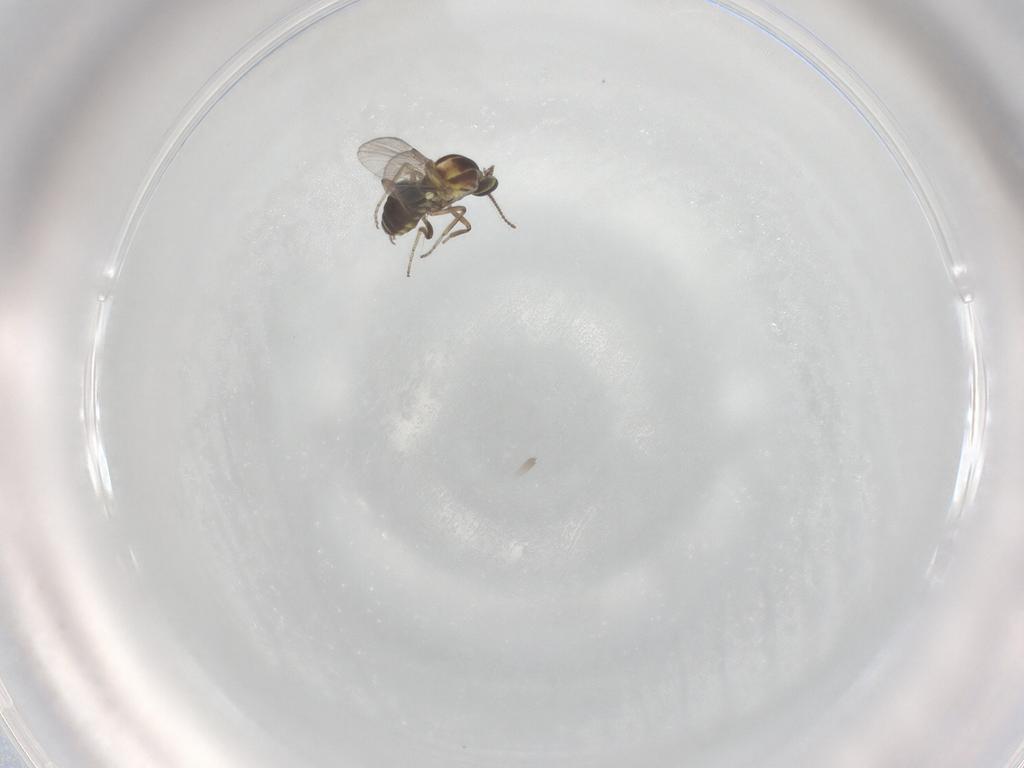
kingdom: Animalia
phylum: Arthropoda
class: Insecta
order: Diptera
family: Ceratopogonidae
